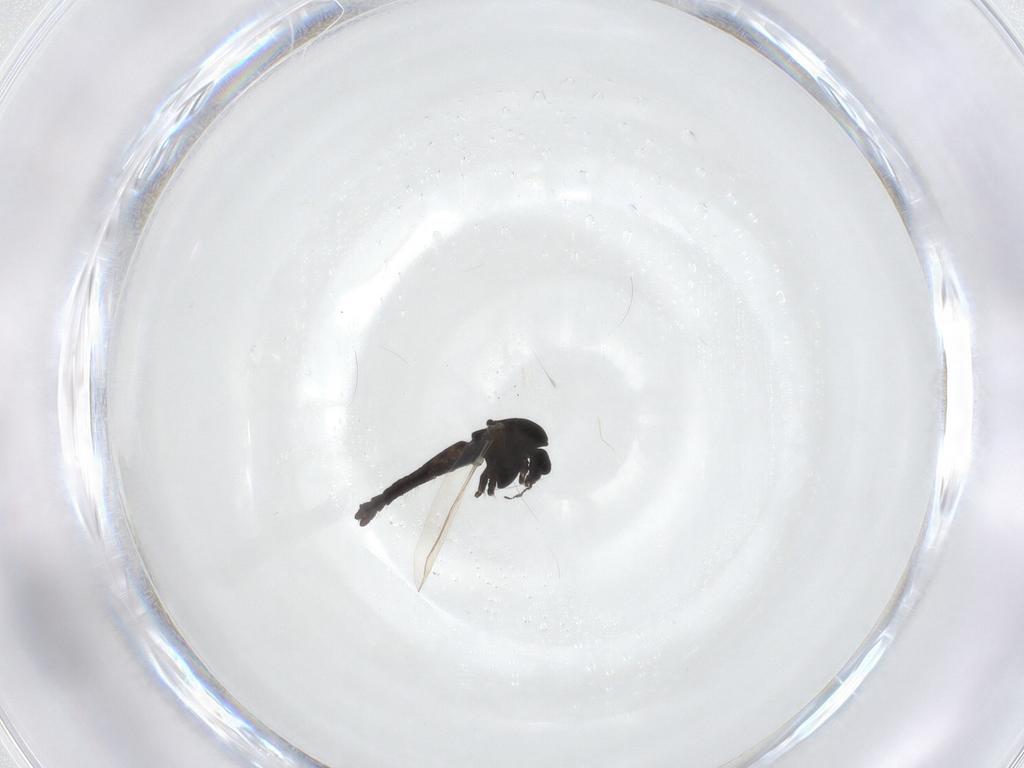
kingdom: Animalia
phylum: Arthropoda
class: Insecta
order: Diptera
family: Chironomidae
